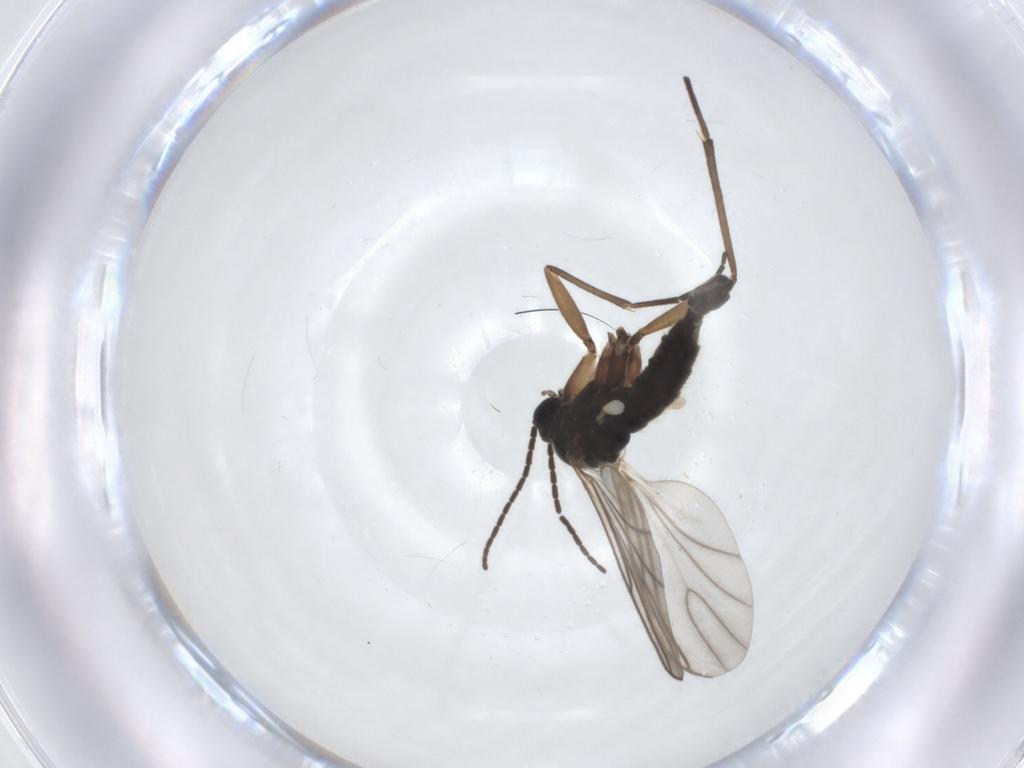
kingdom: Animalia
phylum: Arthropoda
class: Insecta
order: Diptera
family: Sciaridae
